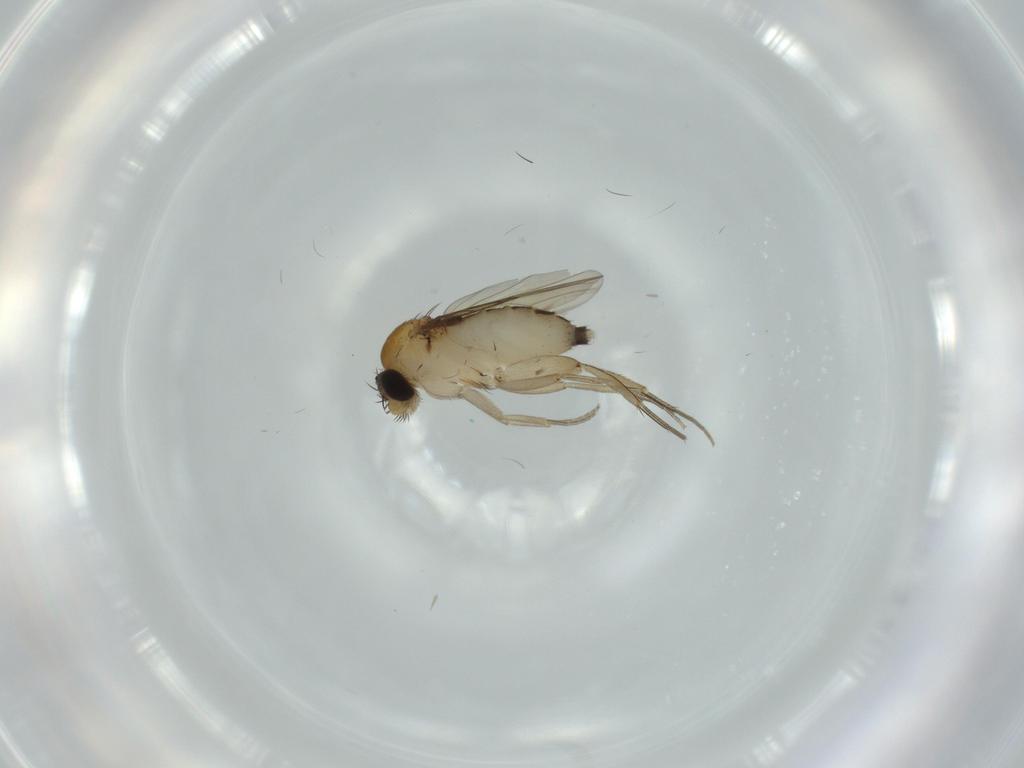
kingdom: Animalia
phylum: Arthropoda
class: Insecta
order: Diptera
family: Phoridae
